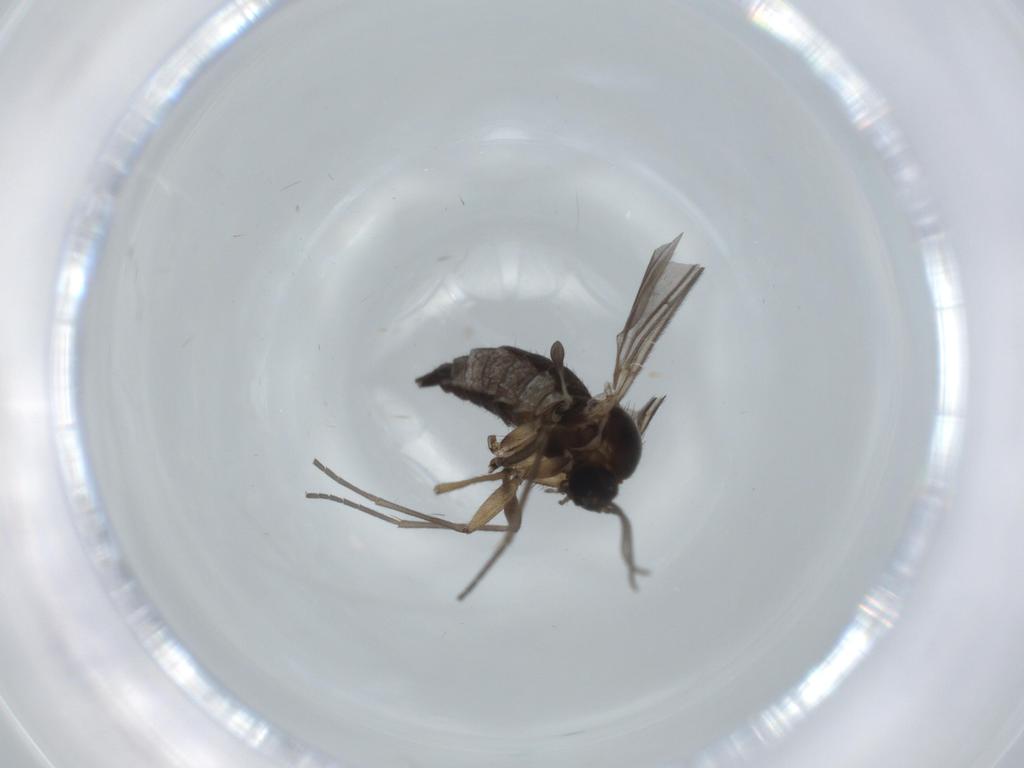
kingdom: Animalia
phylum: Arthropoda
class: Insecta
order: Diptera
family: Sciaridae
